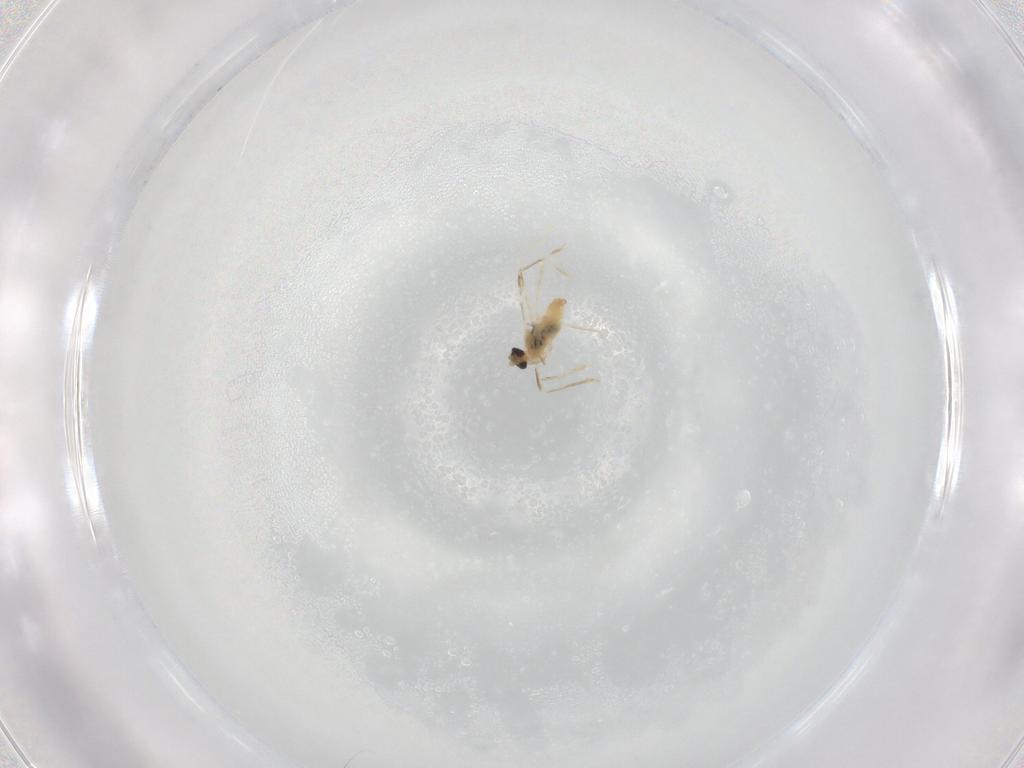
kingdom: Animalia
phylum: Arthropoda
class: Insecta
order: Diptera
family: Cecidomyiidae
